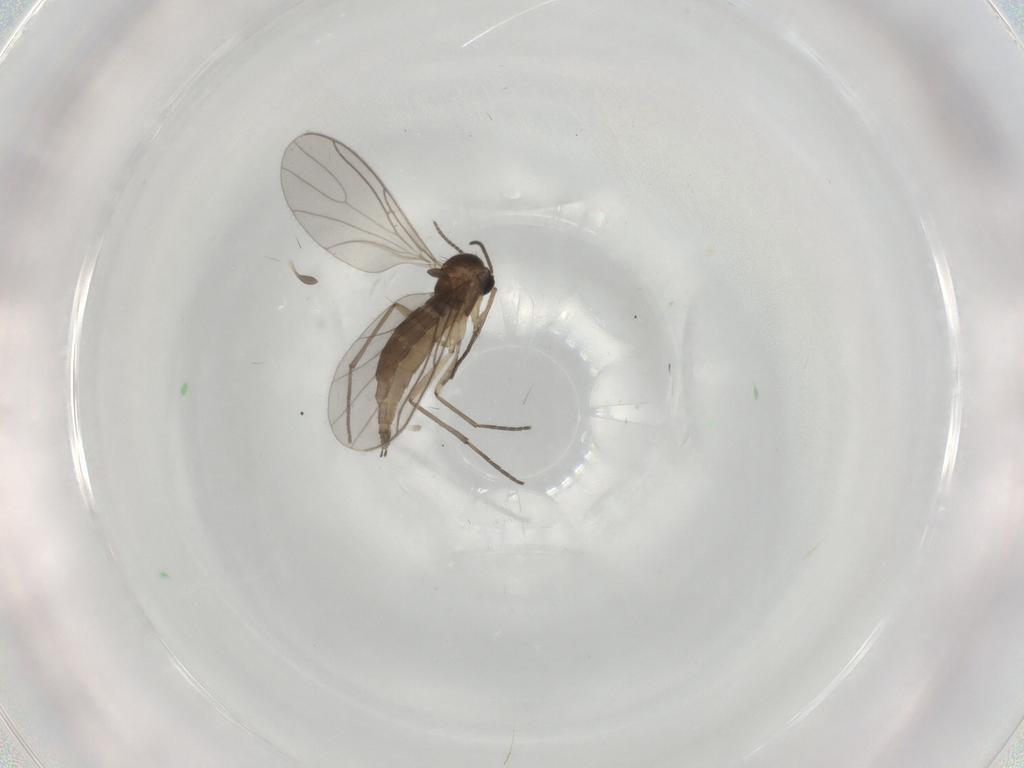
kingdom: Animalia
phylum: Arthropoda
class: Insecta
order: Diptera
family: Sciaridae
